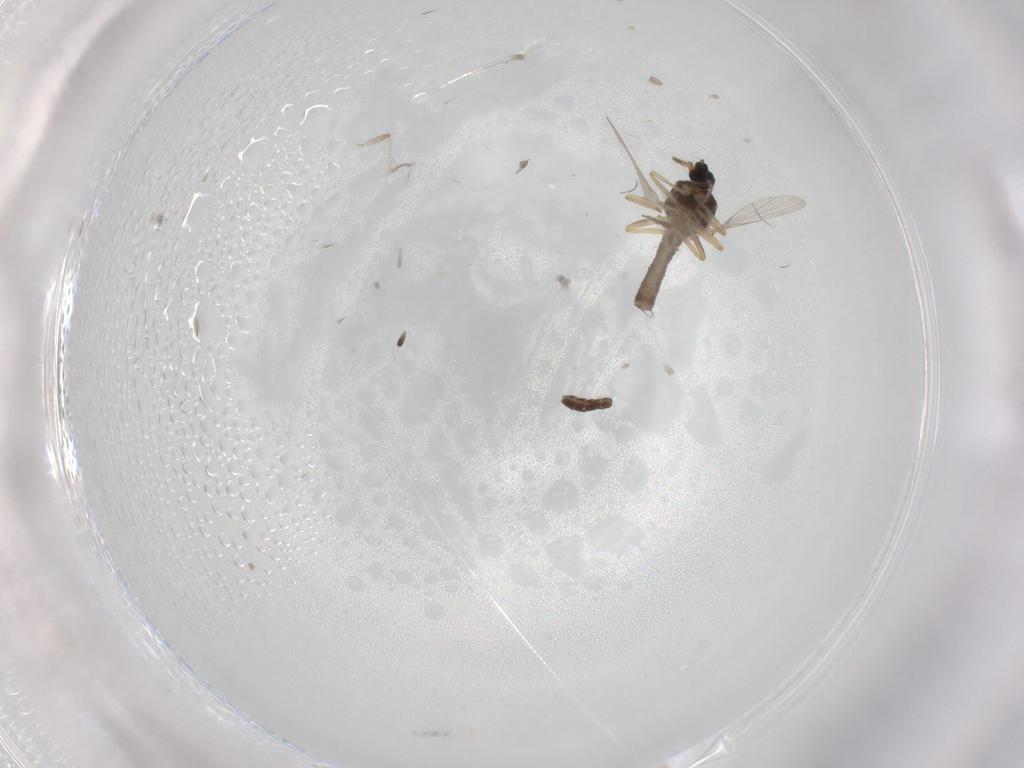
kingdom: Animalia
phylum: Arthropoda
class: Insecta
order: Diptera
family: Ceratopogonidae
